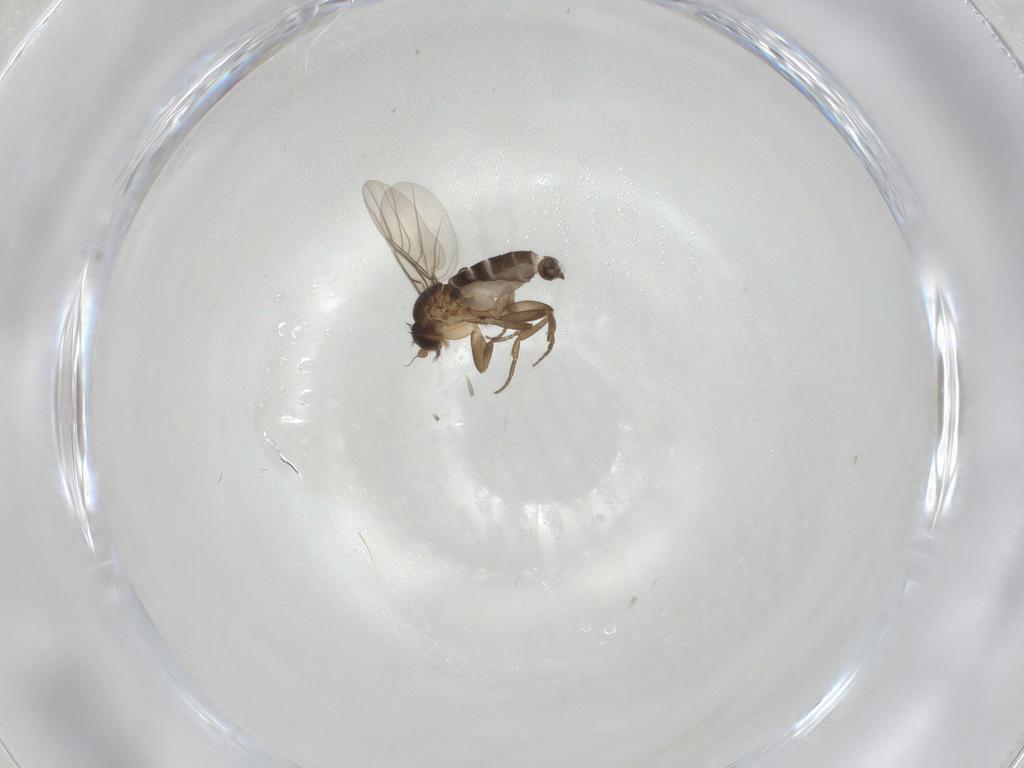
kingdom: Animalia
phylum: Arthropoda
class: Insecta
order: Diptera
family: Phoridae
